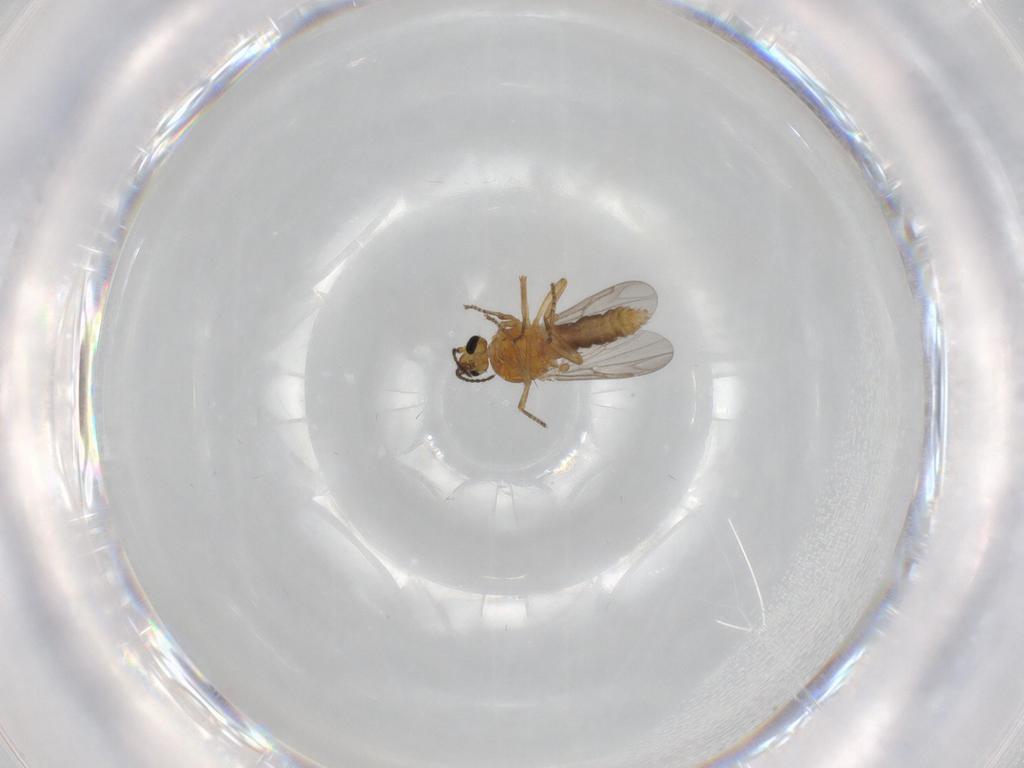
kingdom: Animalia
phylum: Arthropoda
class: Insecta
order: Diptera
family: Ceratopogonidae
